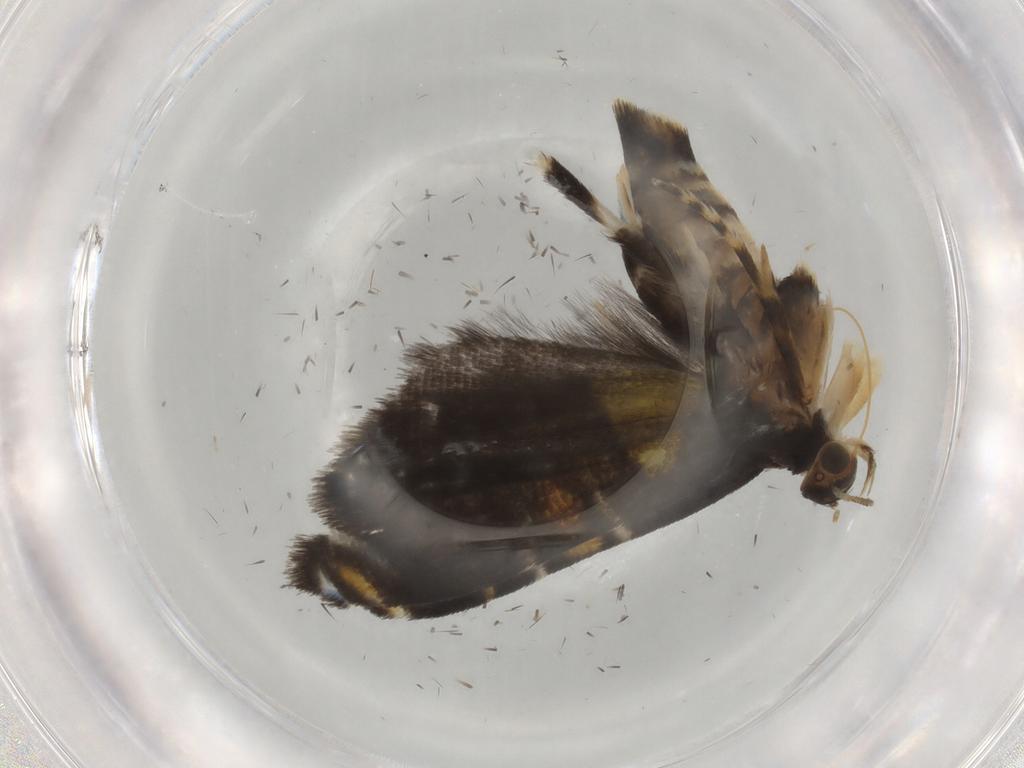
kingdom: Animalia
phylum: Arthropoda
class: Insecta
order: Lepidoptera
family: Glyphipterigidae
